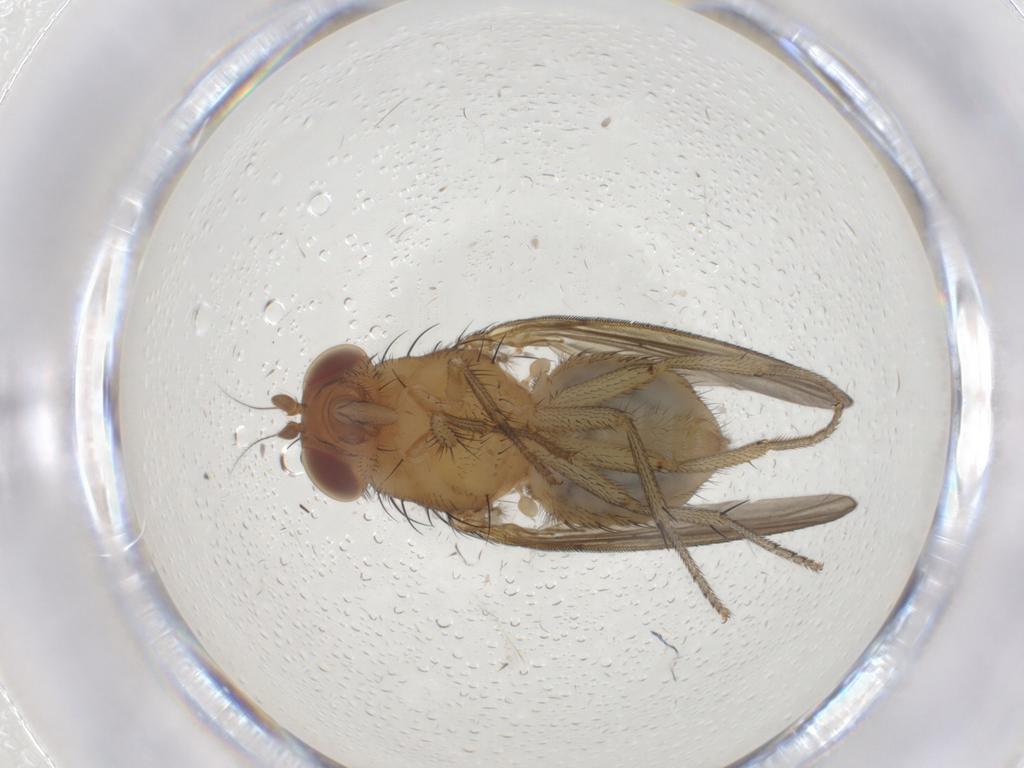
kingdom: Animalia
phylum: Arthropoda
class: Insecta
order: Diptera
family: Lauxaniidae
